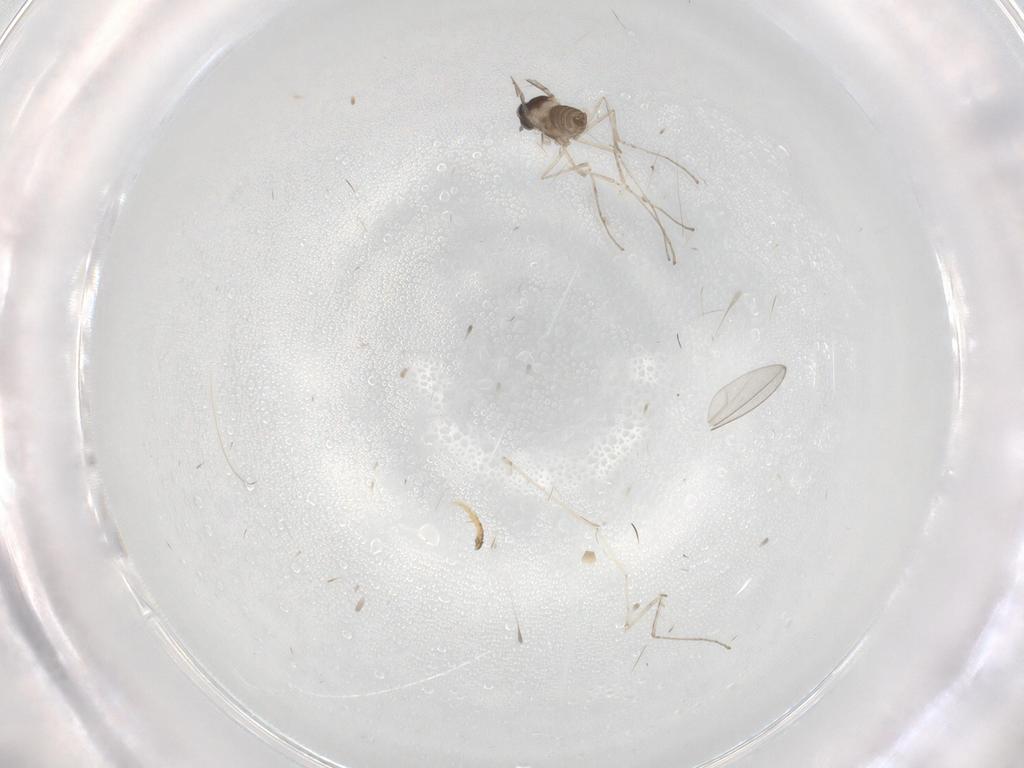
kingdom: Animalia
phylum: Arthropoda
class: Insecta
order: Diptera
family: Cecidomyiidae
